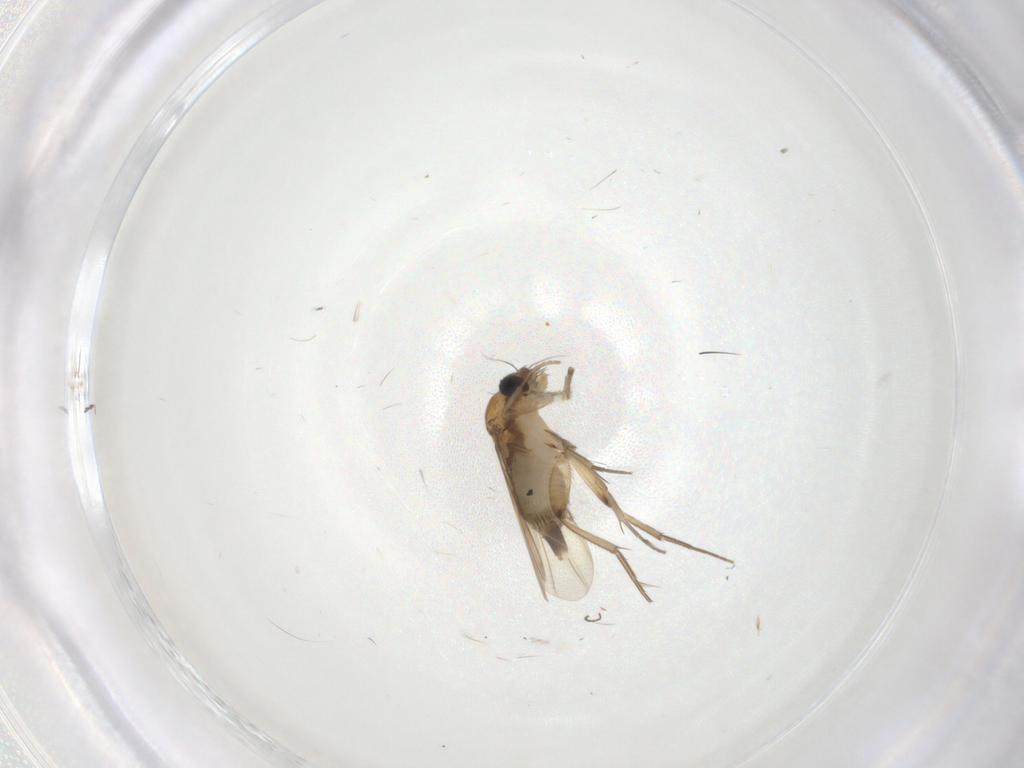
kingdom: Animalia
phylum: Arthropoda
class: Insecta
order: Diptera
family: Phoridae
